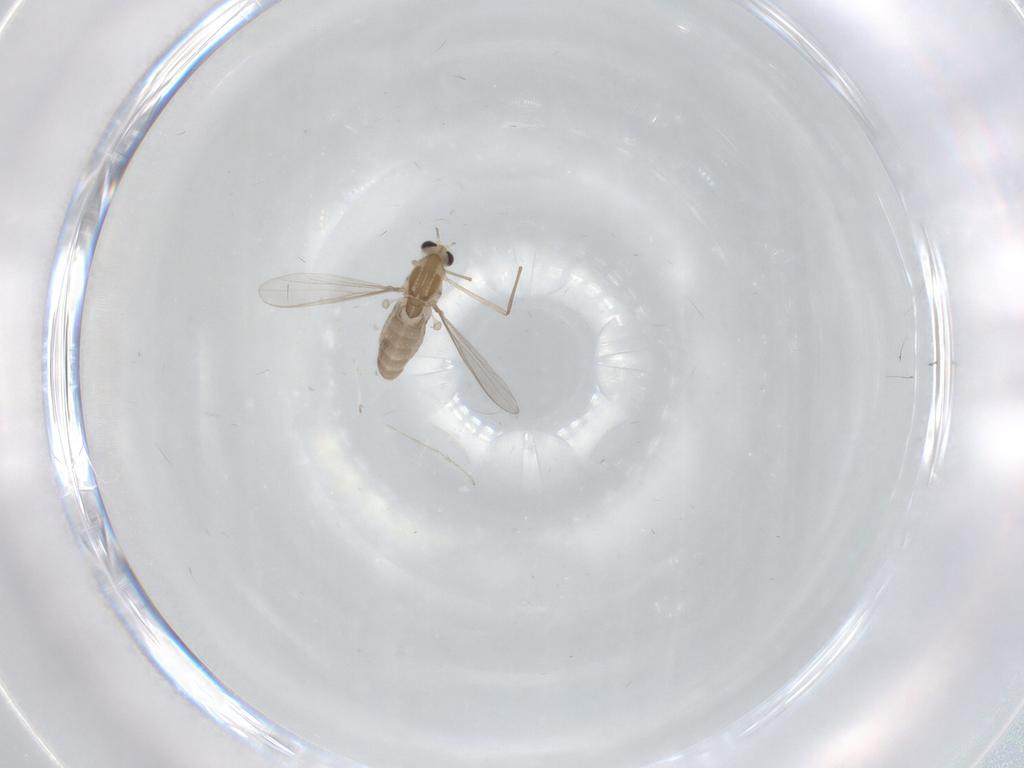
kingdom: Animalia
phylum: Arthropoda
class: Insecta
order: Diptera
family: Chironomidae
